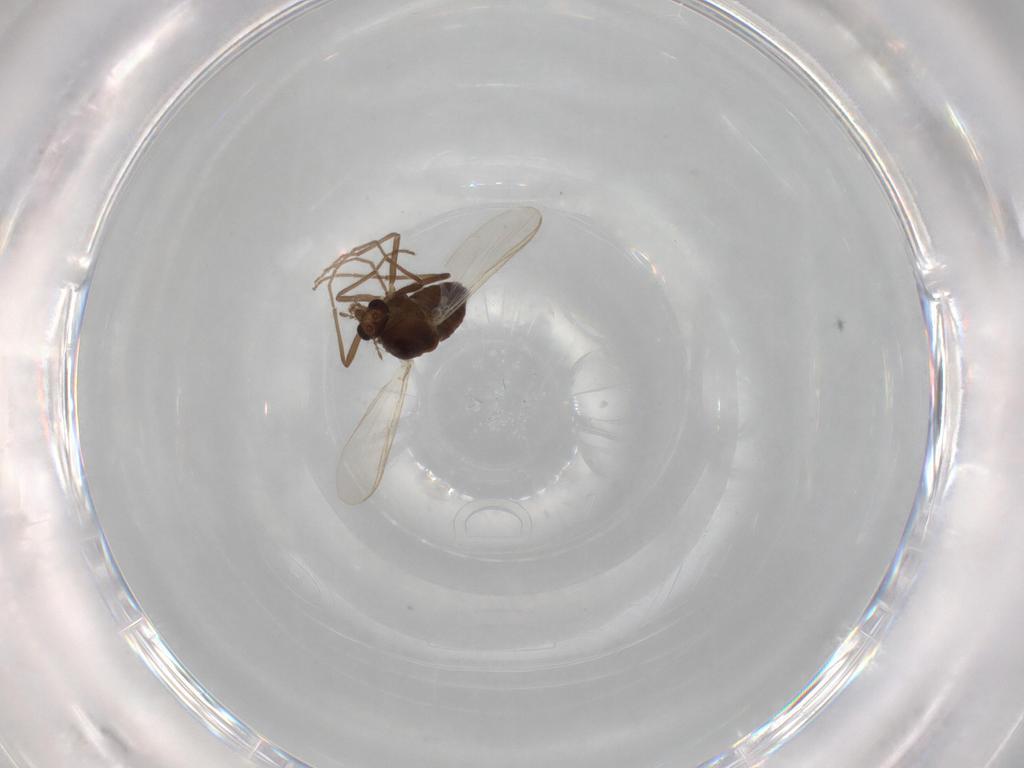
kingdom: Animalia
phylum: Arthropoda
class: Insecta
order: Diptera
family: Chironomidae
